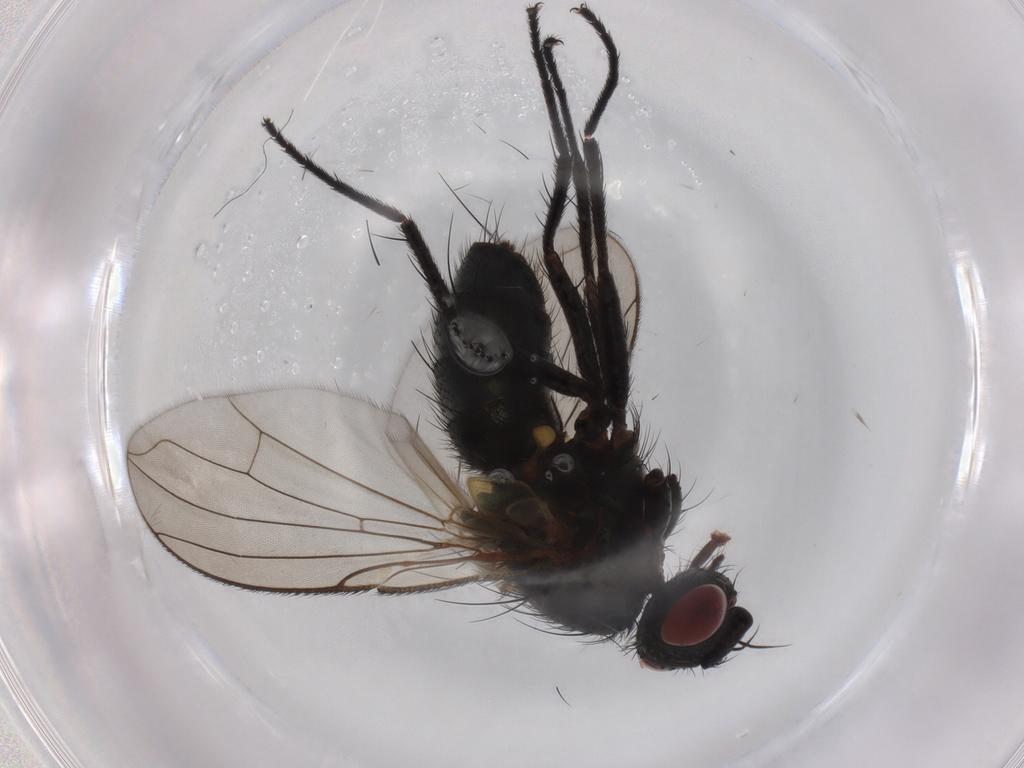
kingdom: Animalia
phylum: Arthropoda
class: Insecta
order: Diptera
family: Tachinidae
